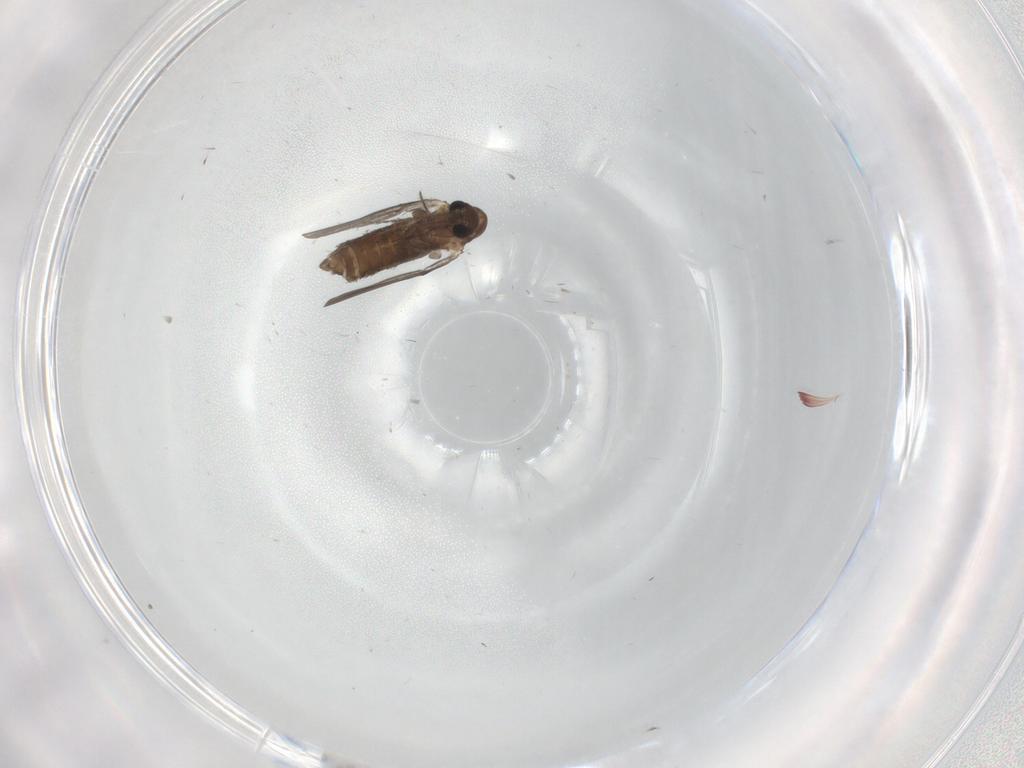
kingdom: Animalia
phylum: Arthropoda
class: Insecta
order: Diptera
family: Ceratopogonidae
